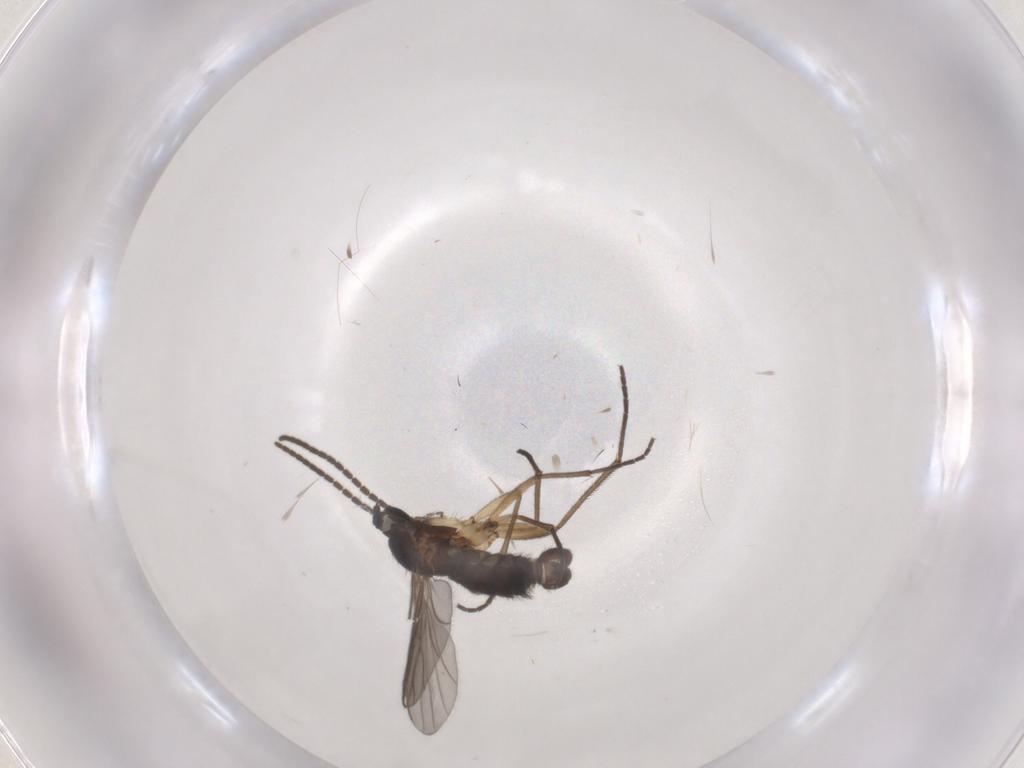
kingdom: Animalia
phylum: Arthropoda
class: Insecta
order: Diptera
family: Sciaridae
